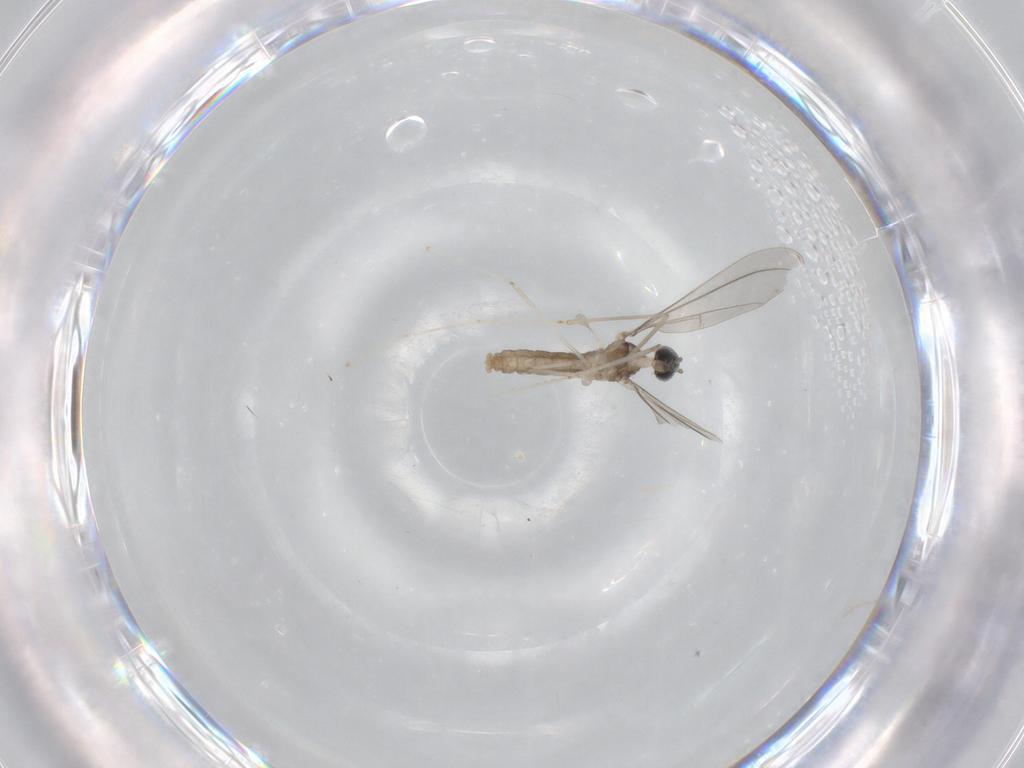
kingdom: Animalia
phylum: Arthropoda
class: Insecta
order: Diptera
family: Cecidomyiidae
